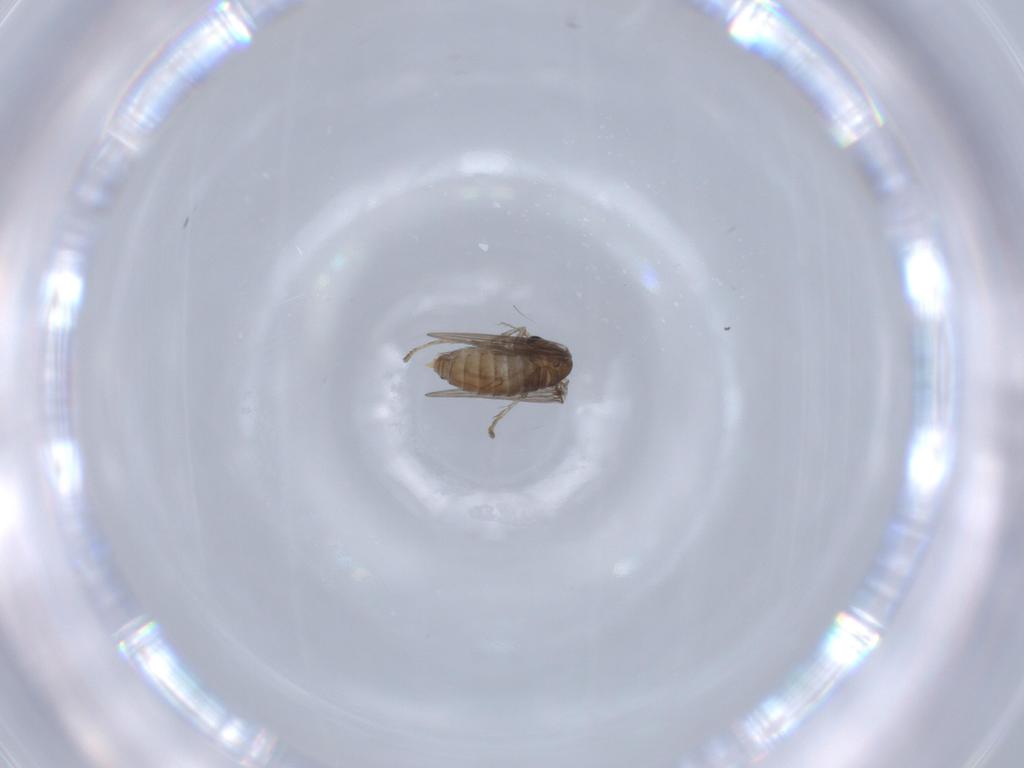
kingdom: Animalia
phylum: Arthropoda
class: Insecta
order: Diptera
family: Psychodidae
